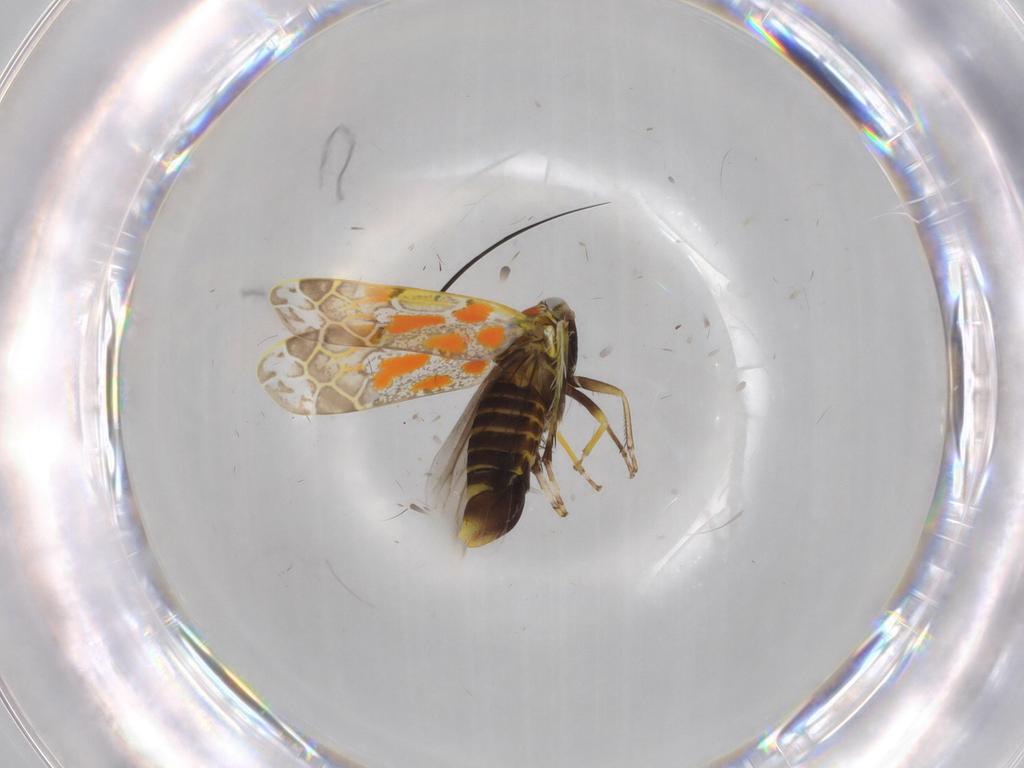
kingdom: Animalia
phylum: Arthropoda
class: Insecta
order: Hemiptera
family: Cicadellidae
